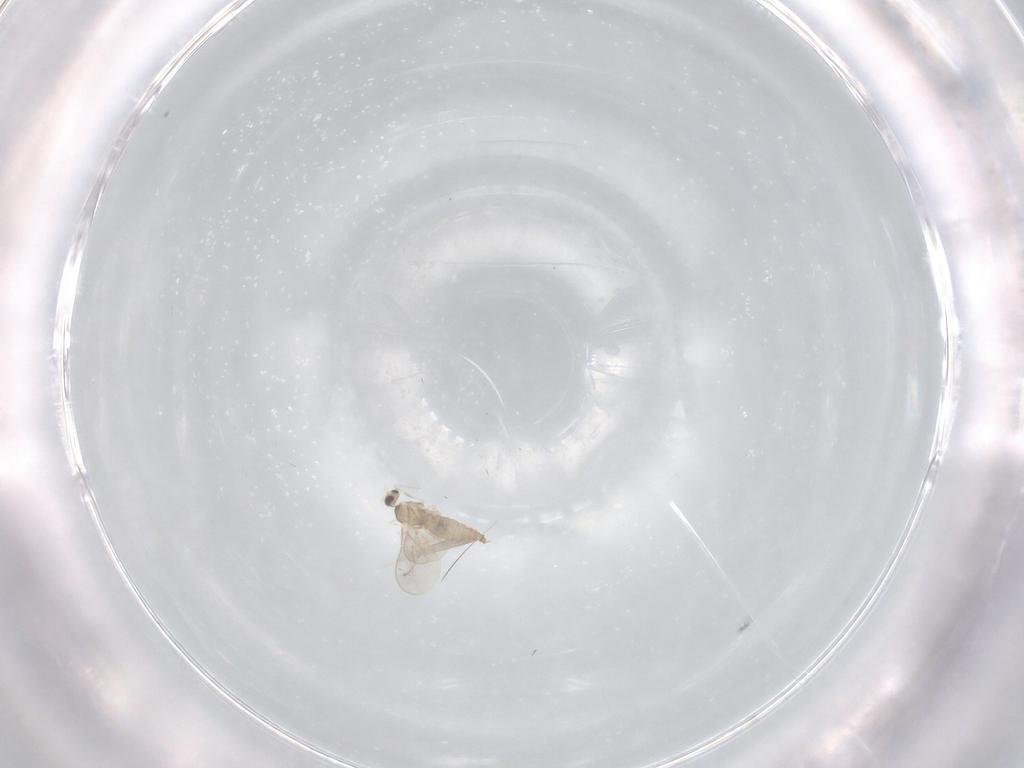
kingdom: Animalia
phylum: Arthropoda
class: Insecta
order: Diptera
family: Cecidomyiidae
